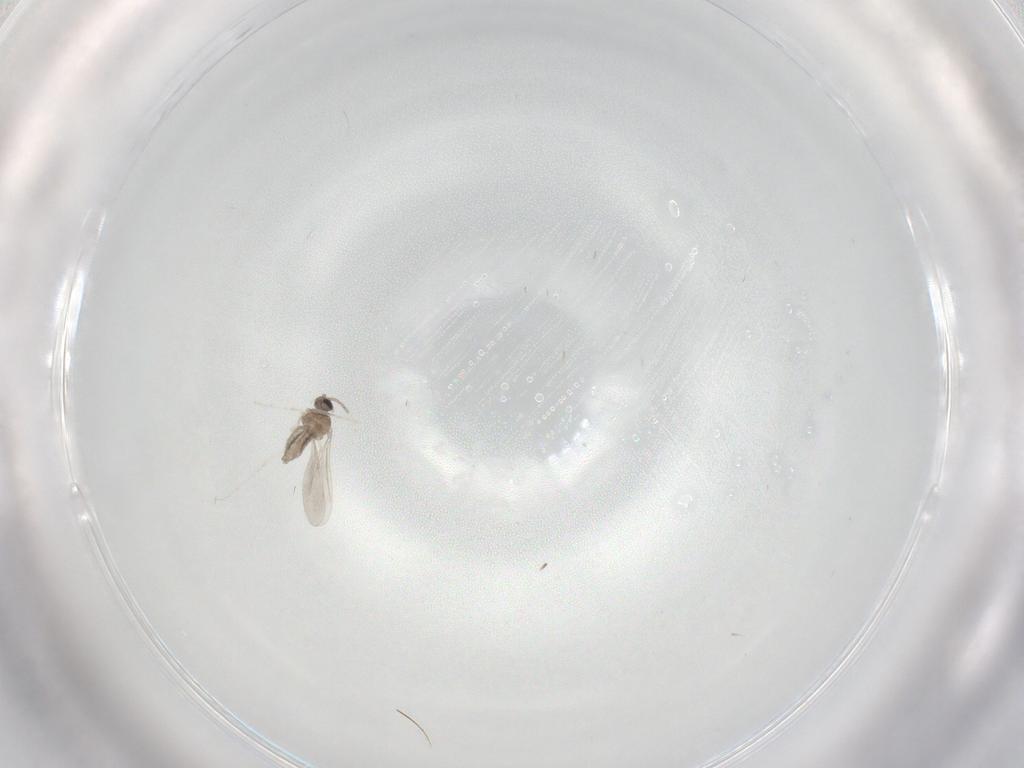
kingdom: Animalia
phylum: Arthropoda
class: Insecta
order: Diptera
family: Cecidomyiidae
